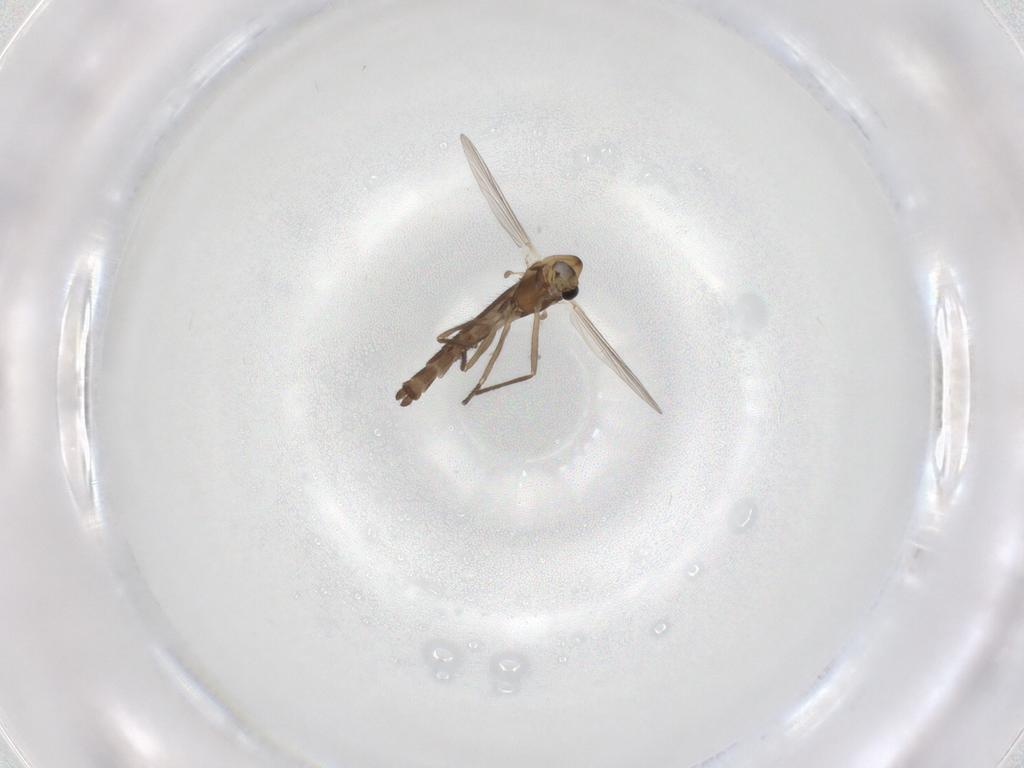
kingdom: Animalia
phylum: Arthropoda
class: Insecta
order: Diptera
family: Chironomidae
